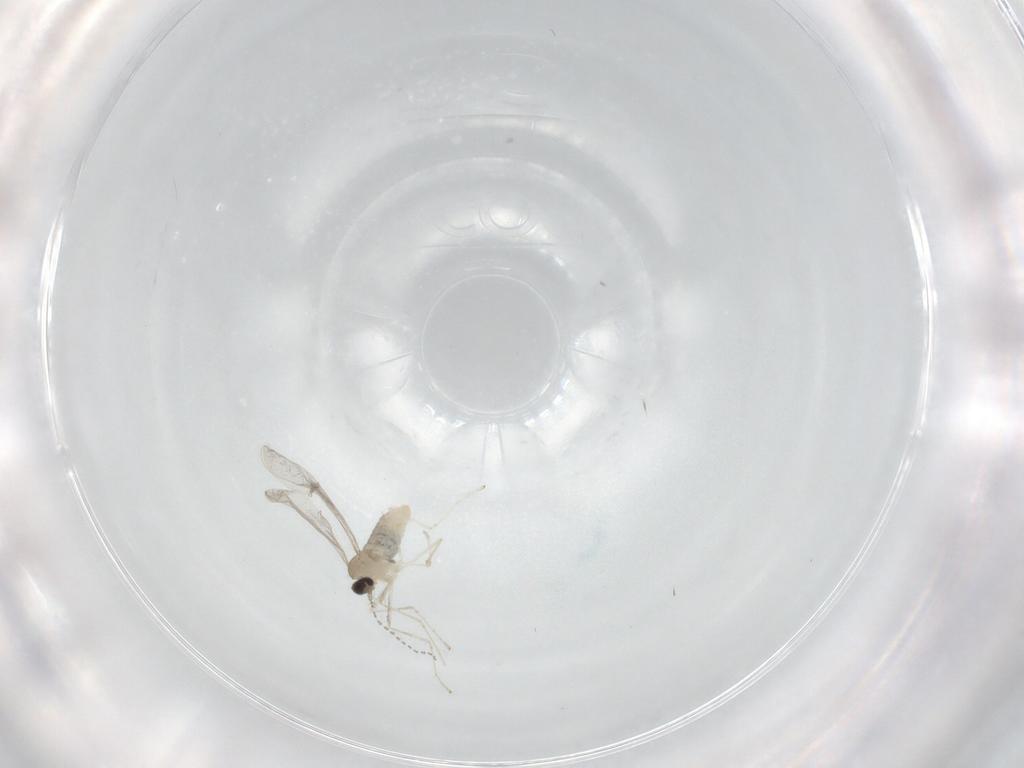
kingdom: Animalia
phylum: Arthropoda
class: Insecta
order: Diptera
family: Cecidomyiidae
